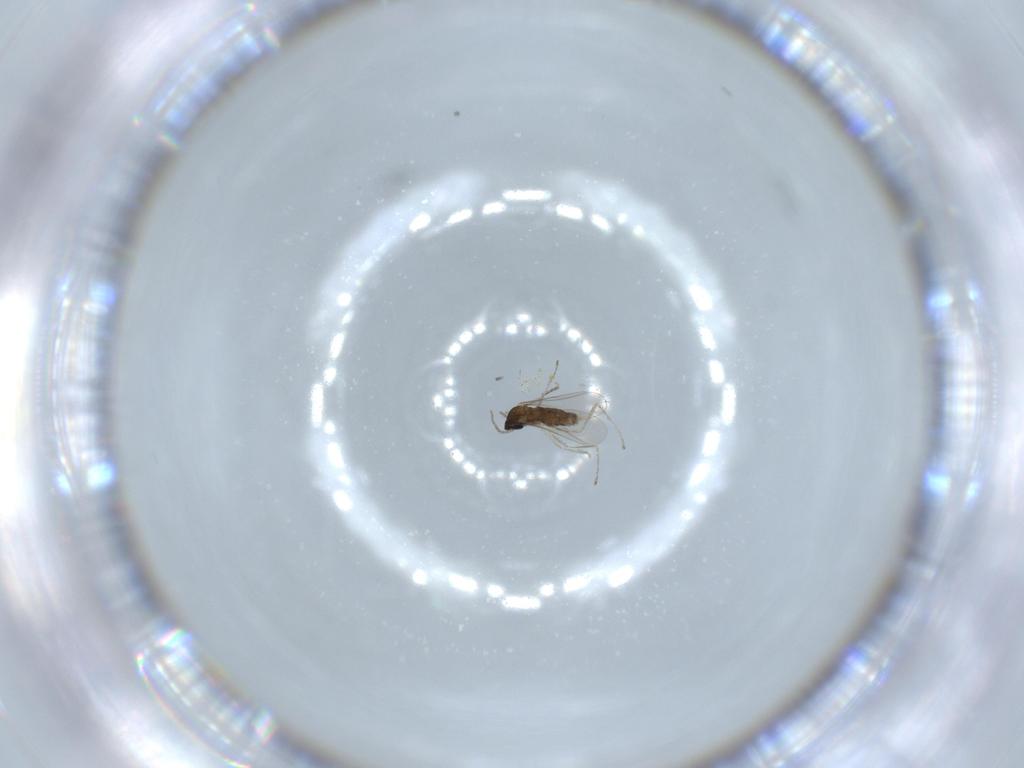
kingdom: Animalia
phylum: Arthropoda
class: Insecta
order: Diptera
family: Cecidomyiidae
